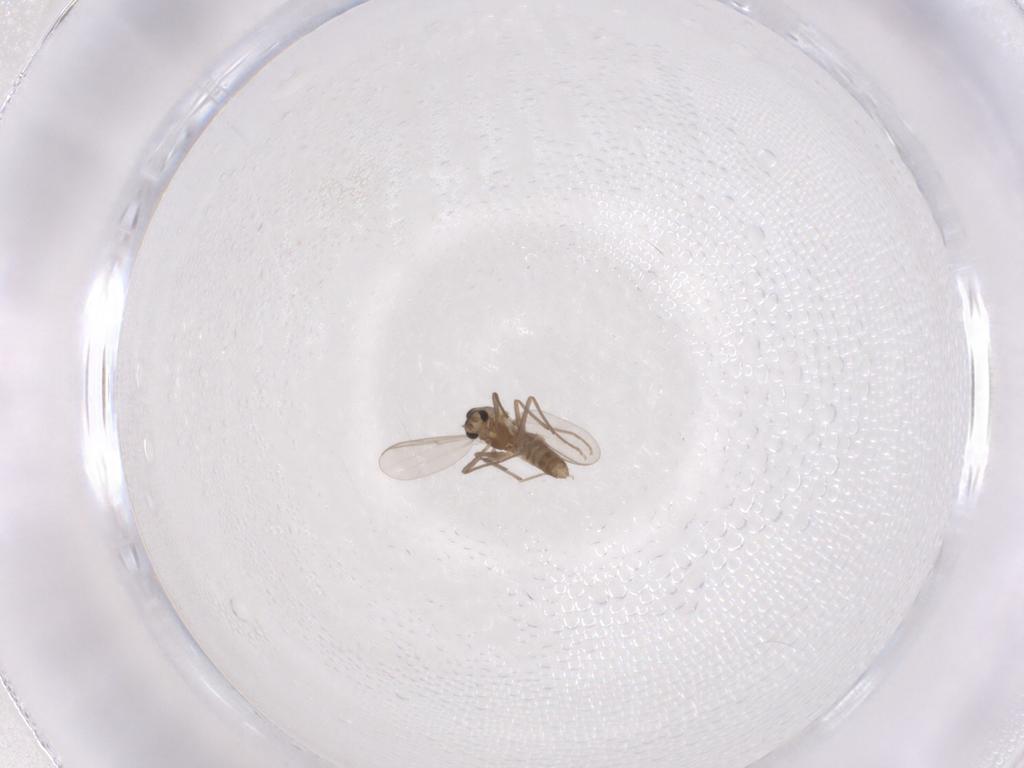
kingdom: Animalia
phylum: Arthropoda
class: Insecta
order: Diptera
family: Chironomidae
